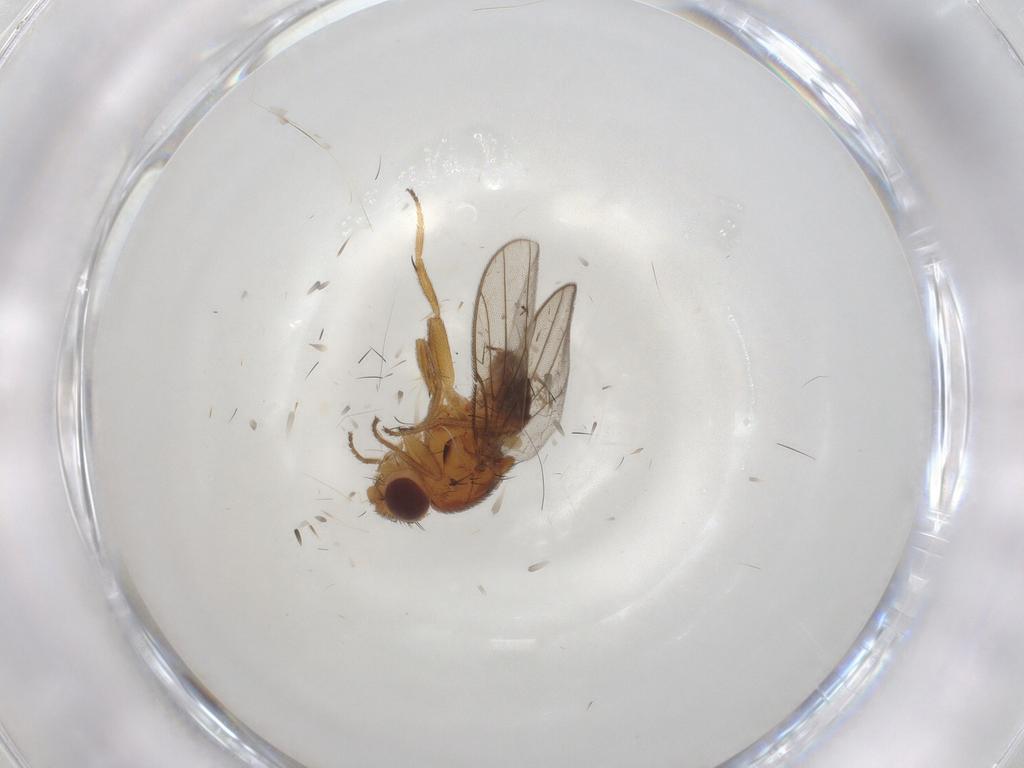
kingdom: Animalia
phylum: Arthropoda
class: Insecta
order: Diptera
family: Chloropidae
